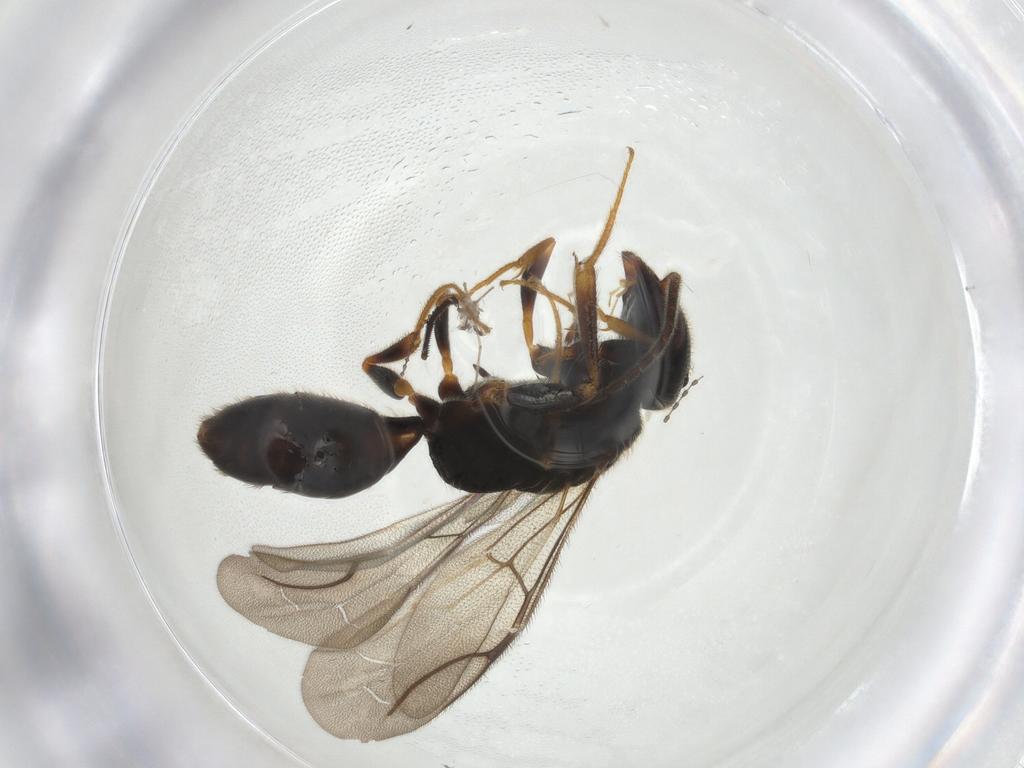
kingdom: Animalia
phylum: Arthropoda
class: Insecta
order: Hymenoptera
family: Bethylidae
